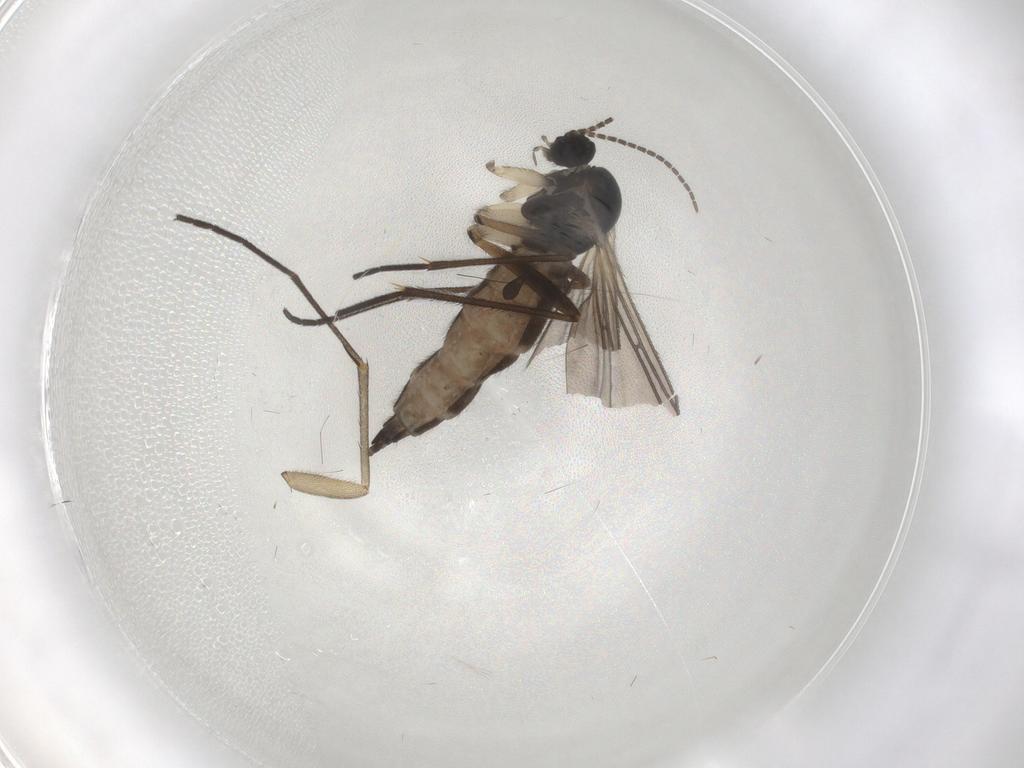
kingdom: Animalia
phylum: Arthropoda
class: Insecta
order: Diptera
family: Sciaridae
